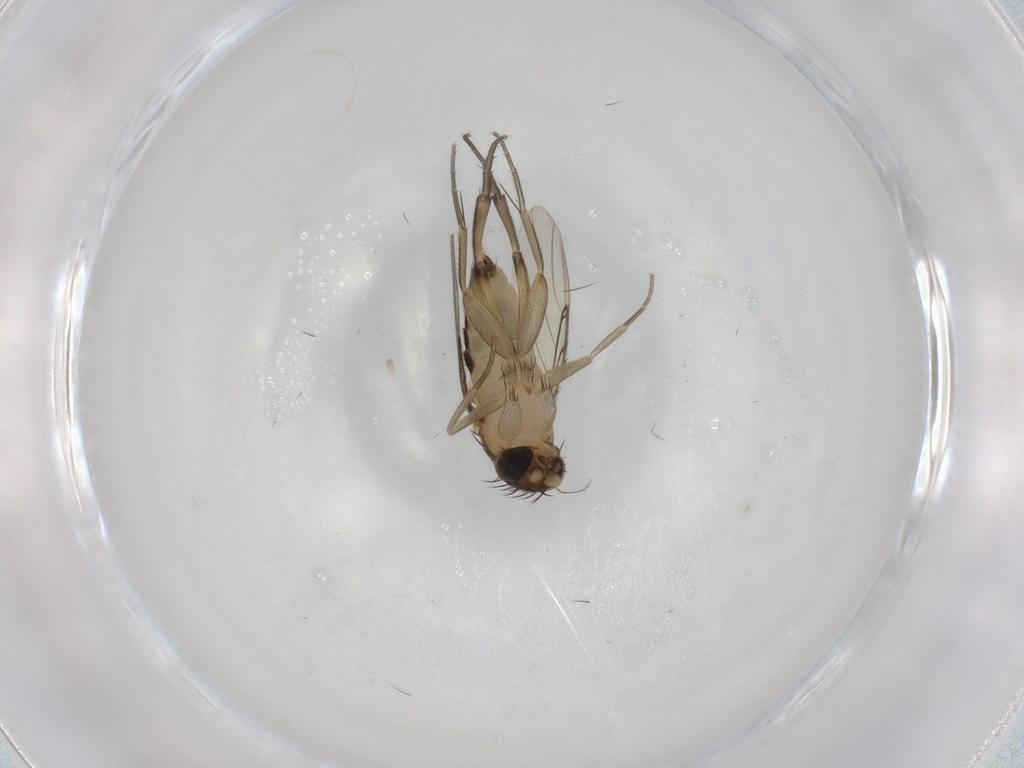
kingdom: Animalia
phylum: Arthropoda
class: Insecta
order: Diptera
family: Phoridae
